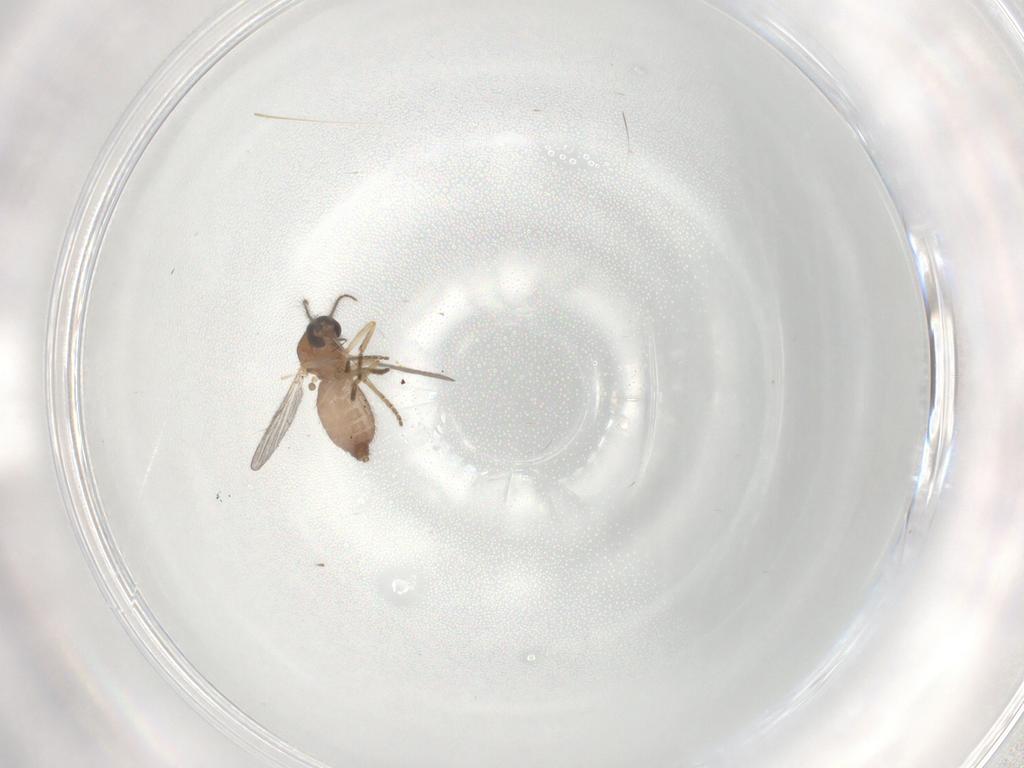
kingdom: Animalia
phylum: Arthropoda
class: Insecta
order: Diptera
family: Ceratopogonidae
